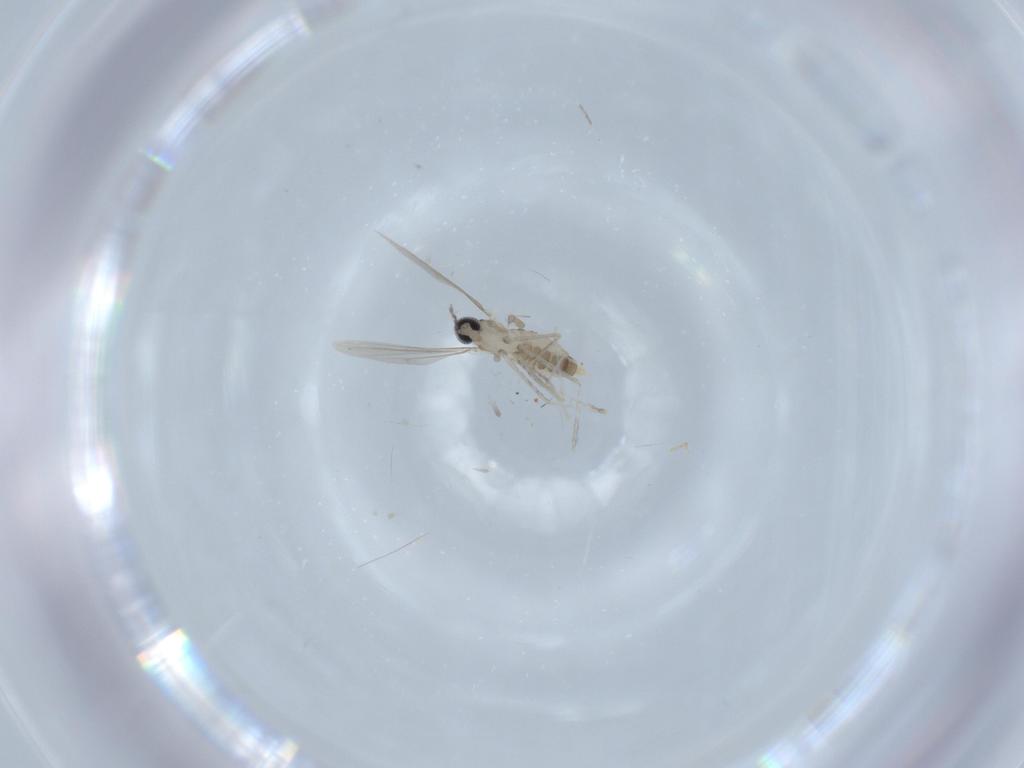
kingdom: Animalia
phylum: Arthropoda
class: Insecta
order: Diptera
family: Cecidomyiidae
